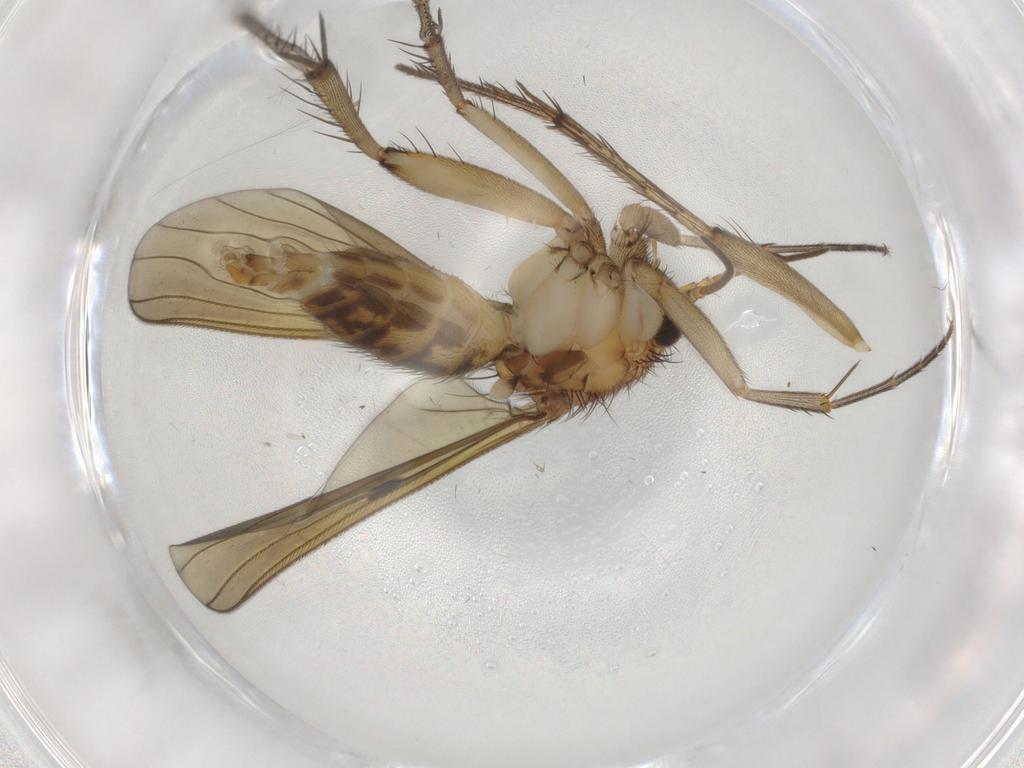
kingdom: Animalia
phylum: Arthropoda
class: Insecta
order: Diptera
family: Mycetophilidae
